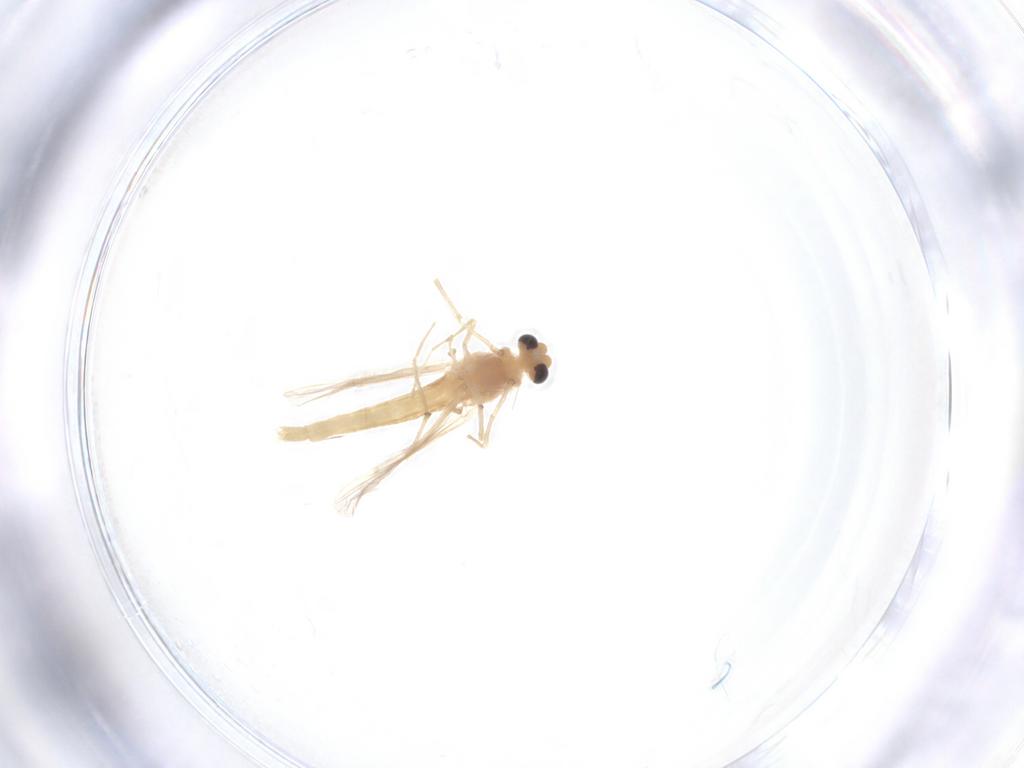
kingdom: Animalia
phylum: Arthropoda
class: Insecta
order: Diptera
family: Chironomidae
